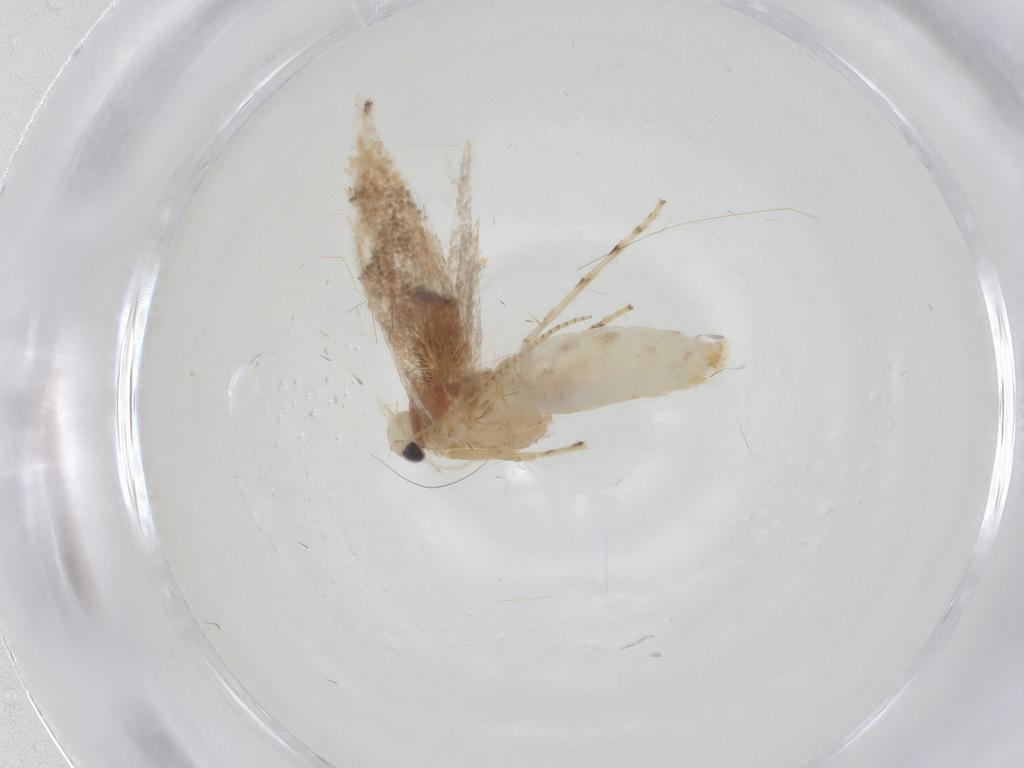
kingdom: Animalia
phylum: Arthropoda
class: Insecta
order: Lepidoptera
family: Gracillariidae
